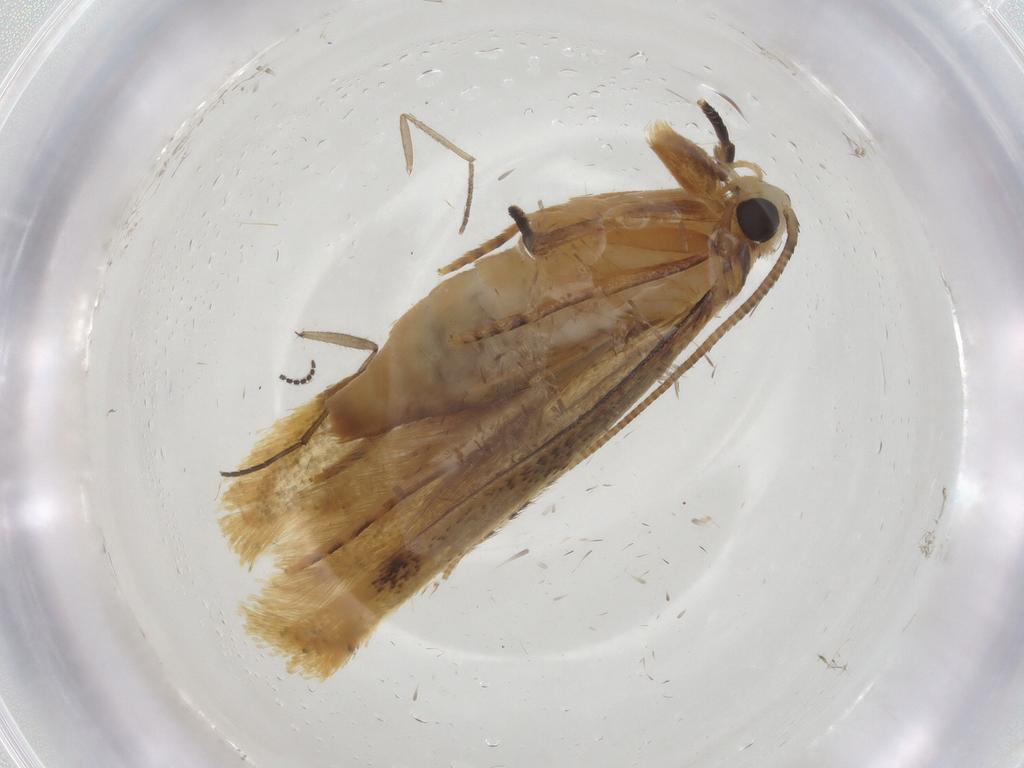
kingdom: Animalia
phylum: Arthropoda
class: Insecta
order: Lepidoptera
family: Tineidae
